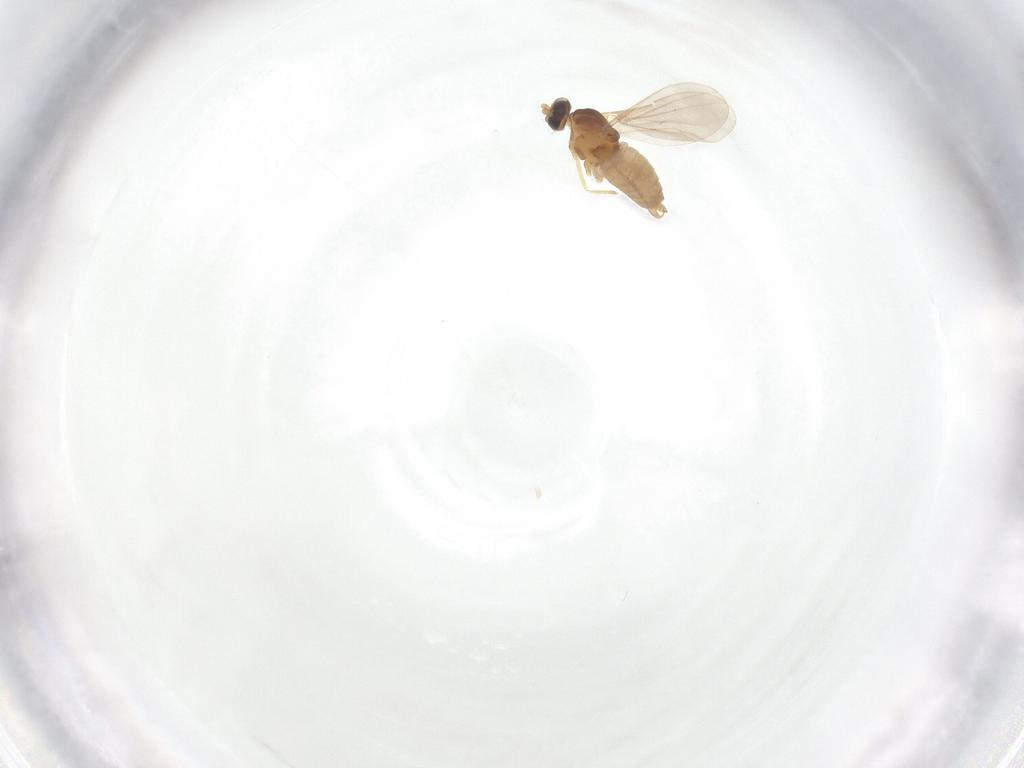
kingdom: Animalia
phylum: Arthropoda
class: Insecta
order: Diptera
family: Cecidomyiidae
